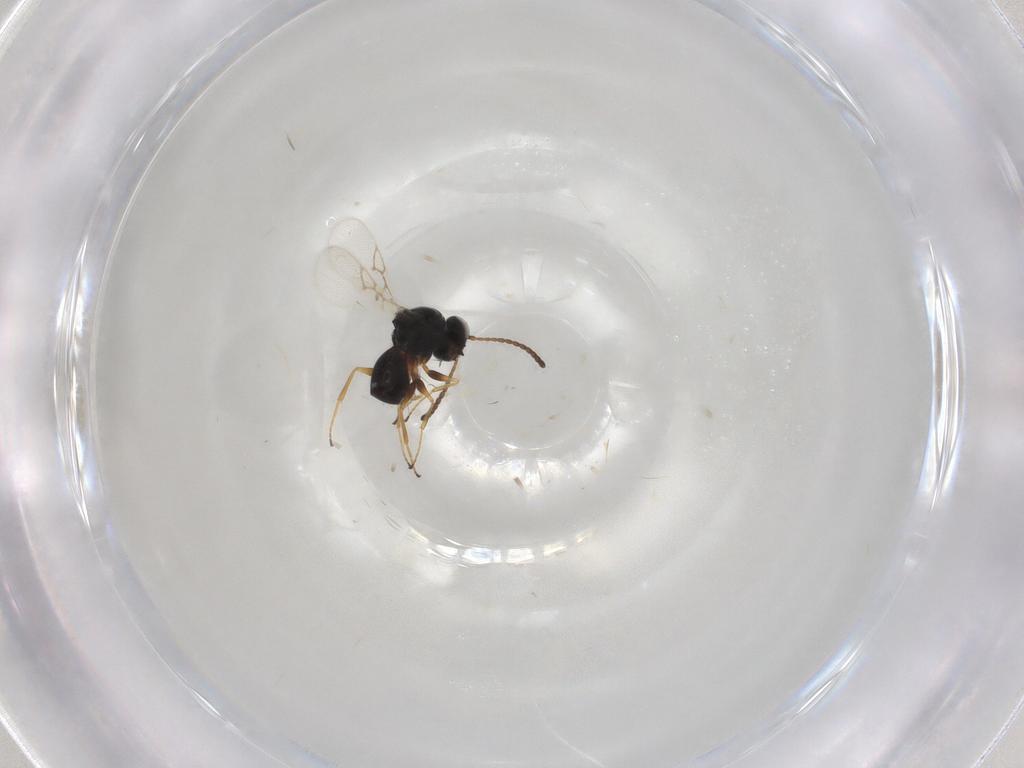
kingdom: Animalia
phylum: Arthropoda
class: Insecta
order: Hymenoptera
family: Figitidae
